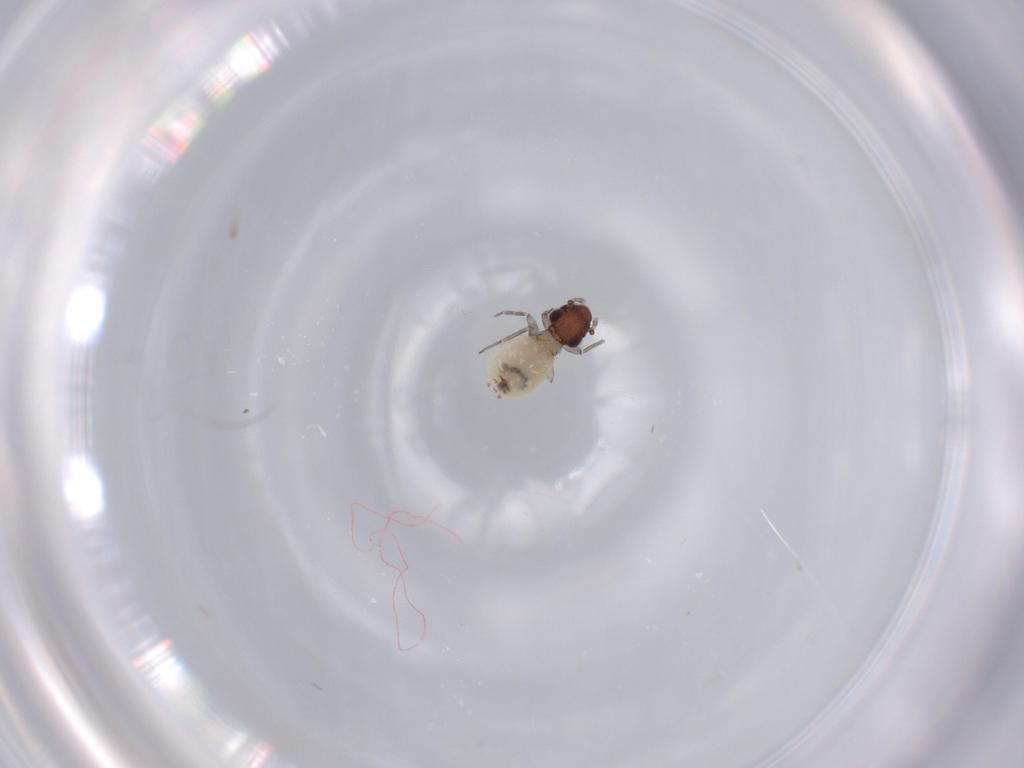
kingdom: Animalia
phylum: Arthropoda
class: Insecta
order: Psocodea
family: Lepidopsocidae
